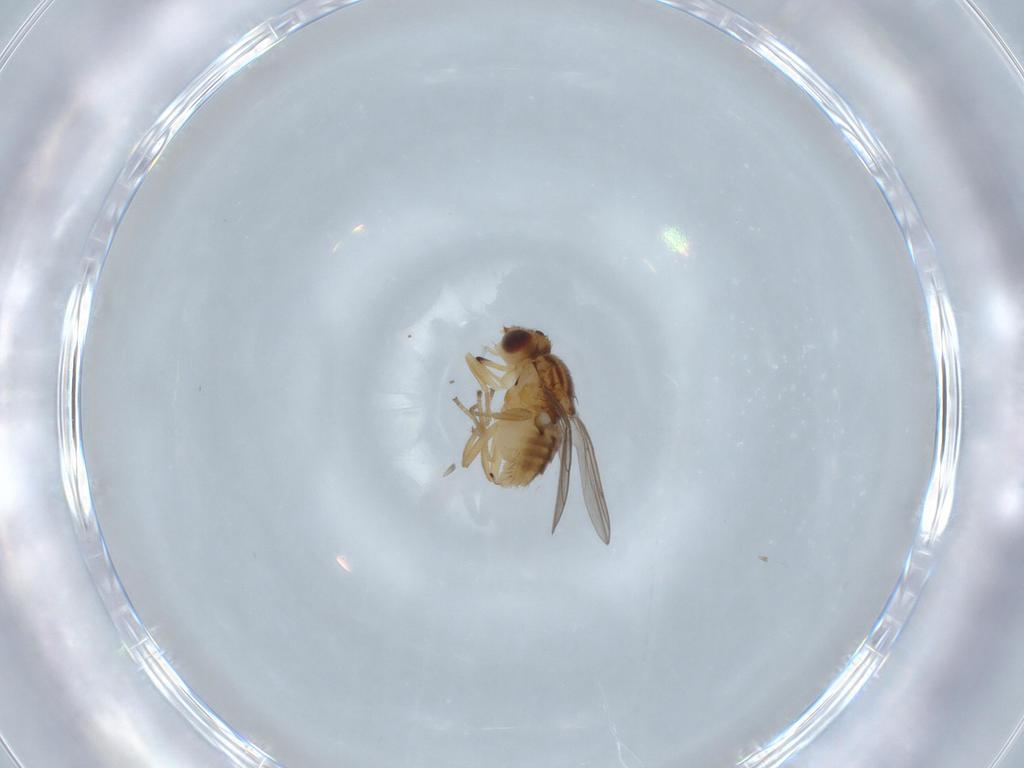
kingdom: Animalia
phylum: Arthropoda
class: Insecta
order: Diptera
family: Chloropidae
